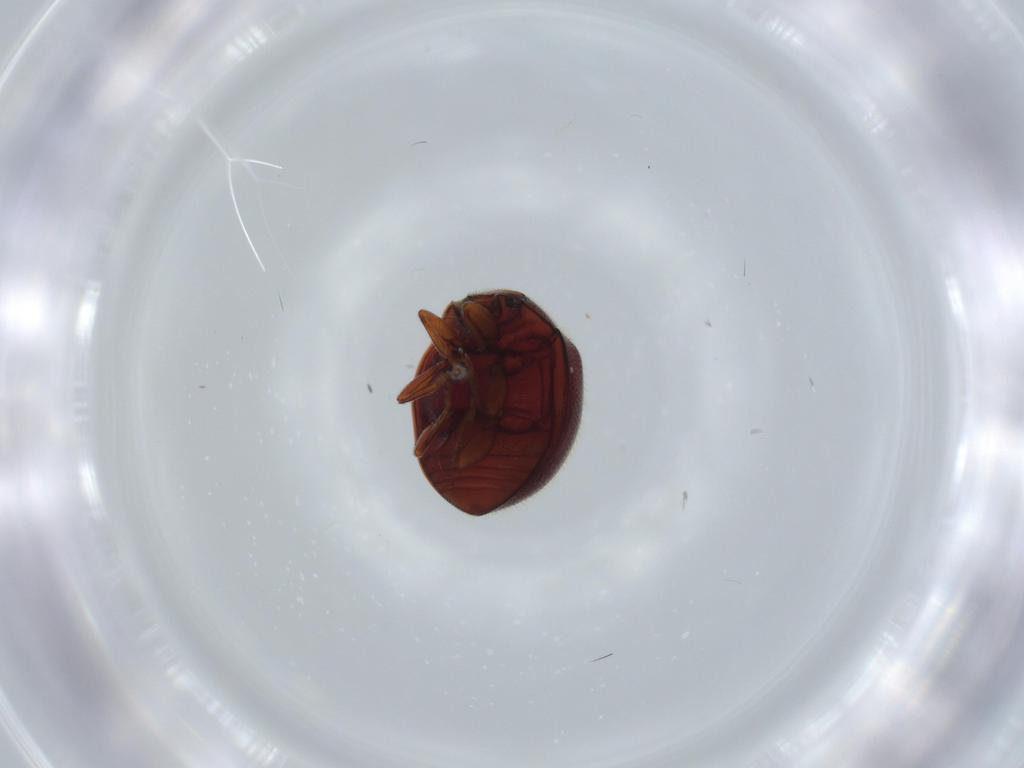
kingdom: Animalia
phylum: Arthropoda
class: Insecta
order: Coleoptera
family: Coccinellidae
